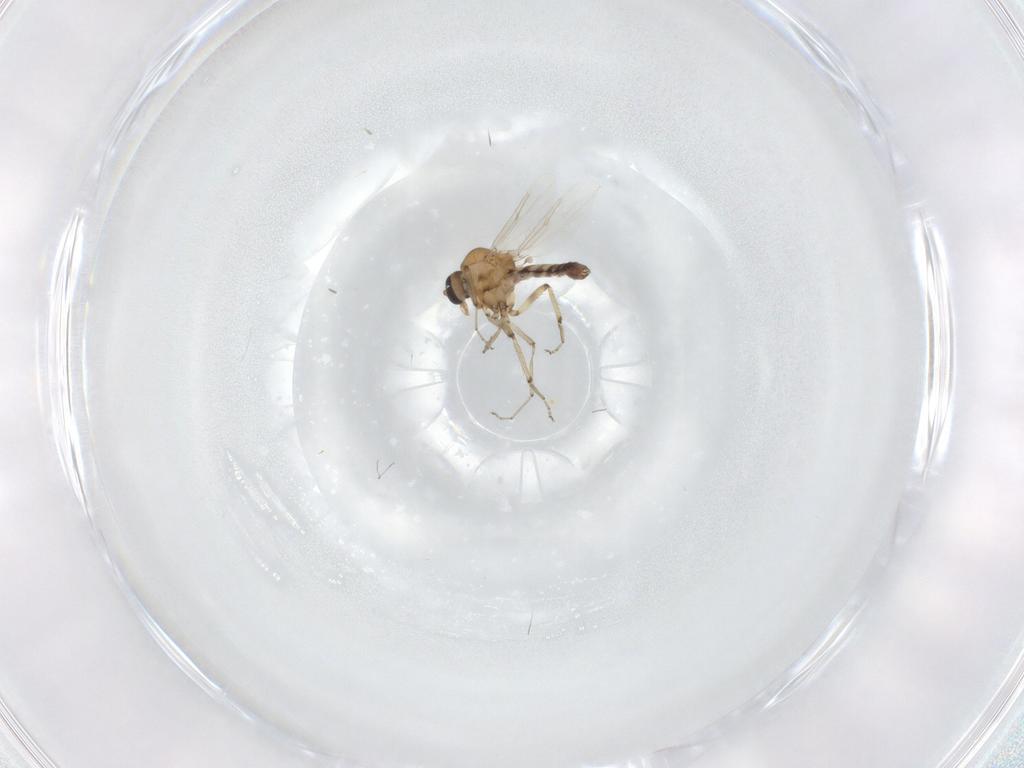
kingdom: Animalia
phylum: Arthropoda
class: Insecta
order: Diptera
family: Ceratopogonidae
